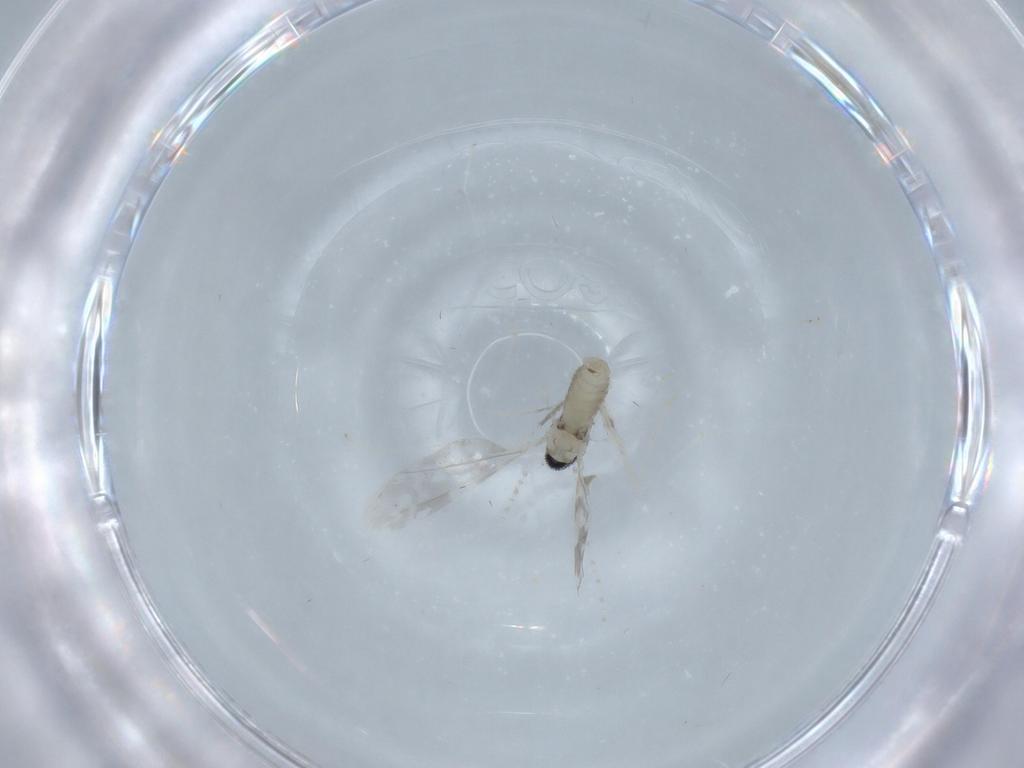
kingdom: Animalia
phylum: Arthropoda
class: Insecta
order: Diptera
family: Cecidomyiidae
